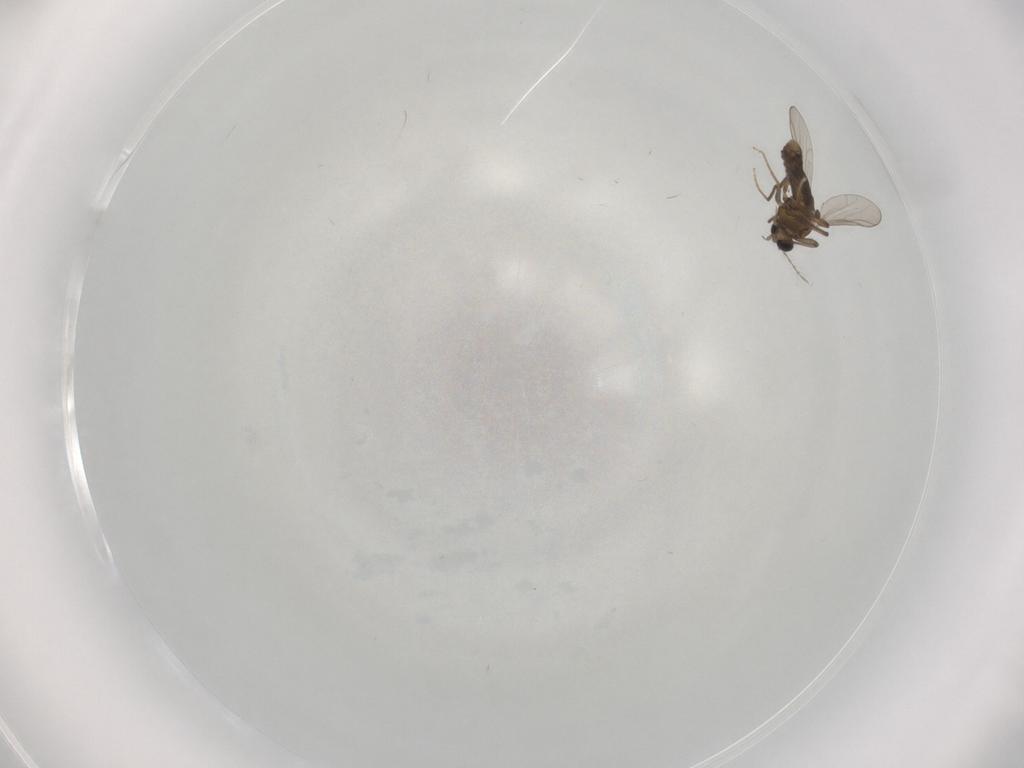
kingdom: Animalia
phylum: Arthropoda
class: Insecta
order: Diptera
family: Chironomidae
